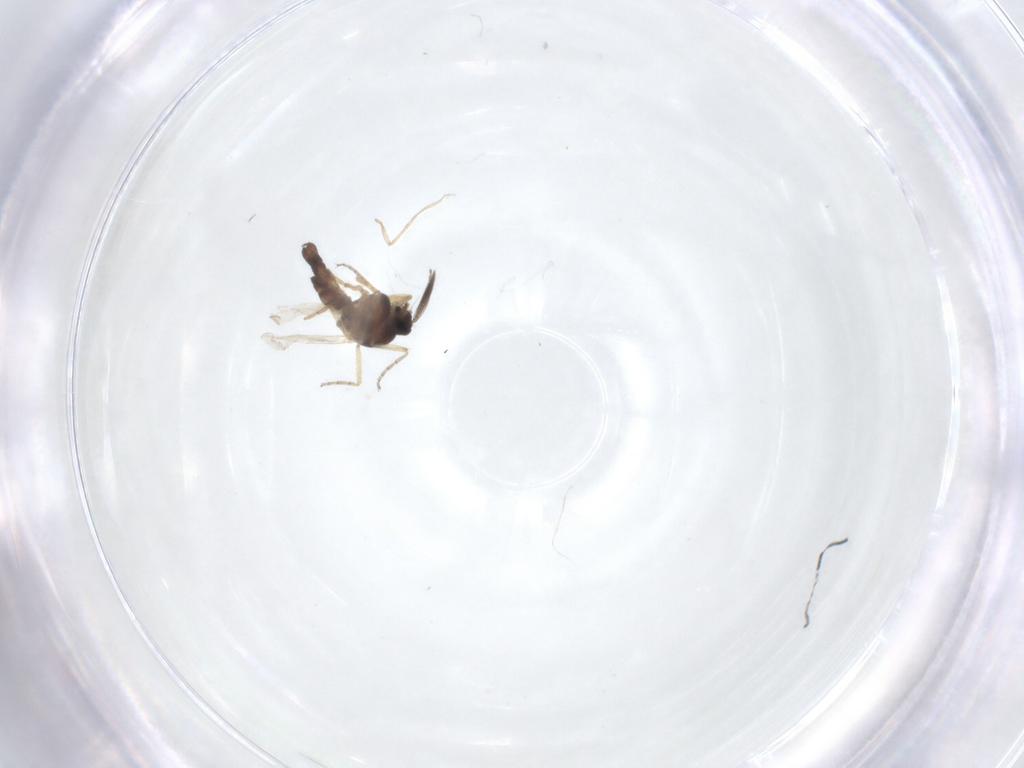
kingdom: Animalia
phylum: Arthropoda
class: Insecta
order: Diptera
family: Ceratopogonidae
